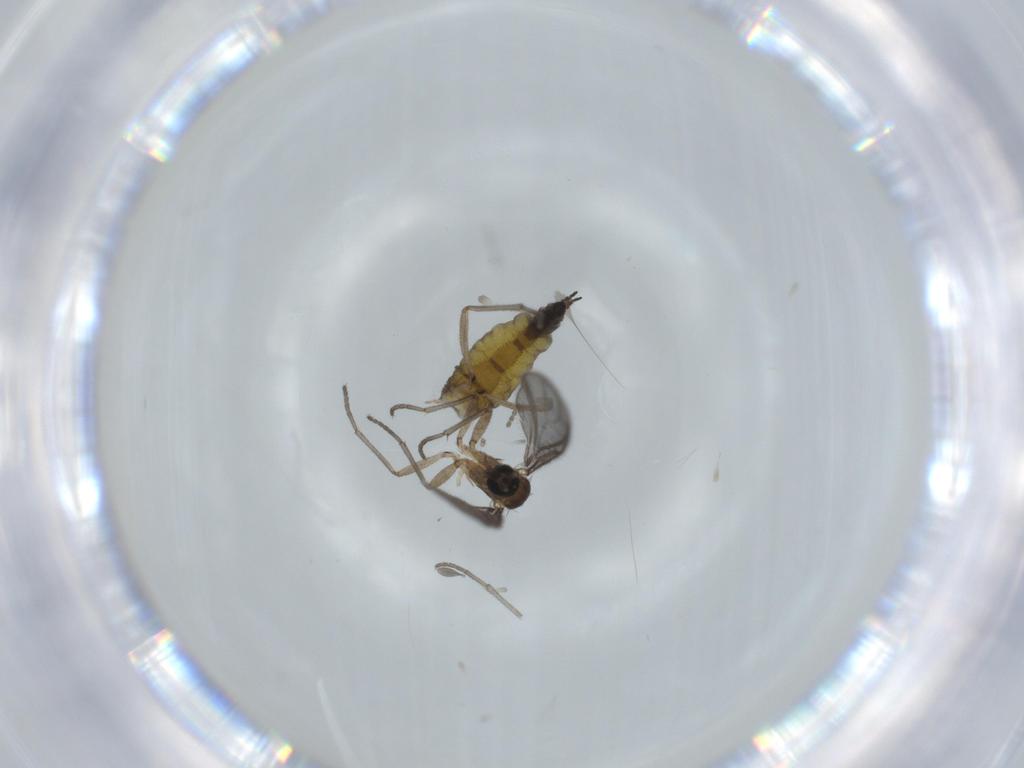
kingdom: Animalia
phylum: Arthropoda
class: Insecta
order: Diptera
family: Sciaridae
